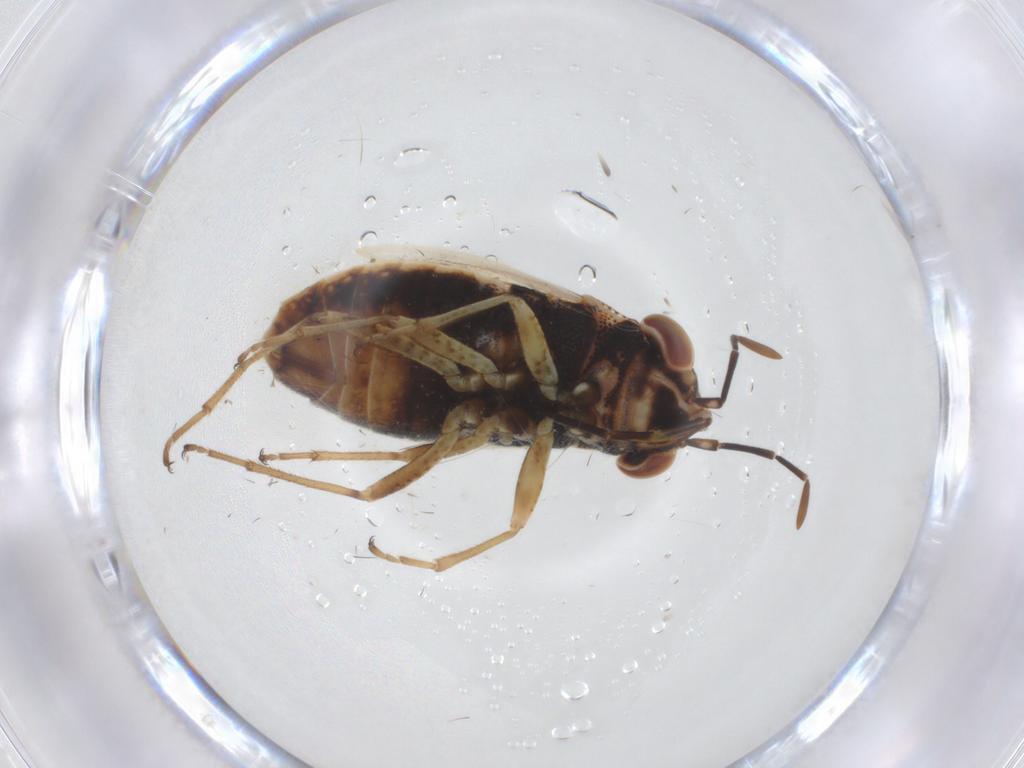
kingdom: Animalia
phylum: Arthropoda
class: Insecta
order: Hemiptera
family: Geocoridae
